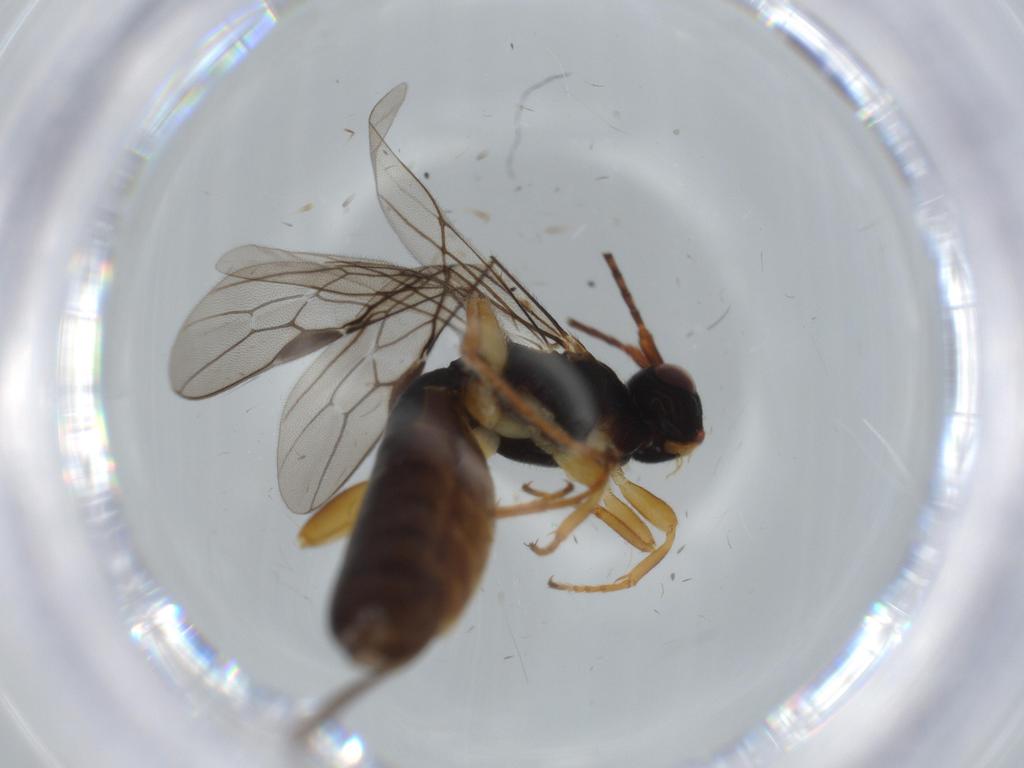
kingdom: Animalia
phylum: Arthropoda
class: Insecta
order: Hymenoptera
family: Braconidae
